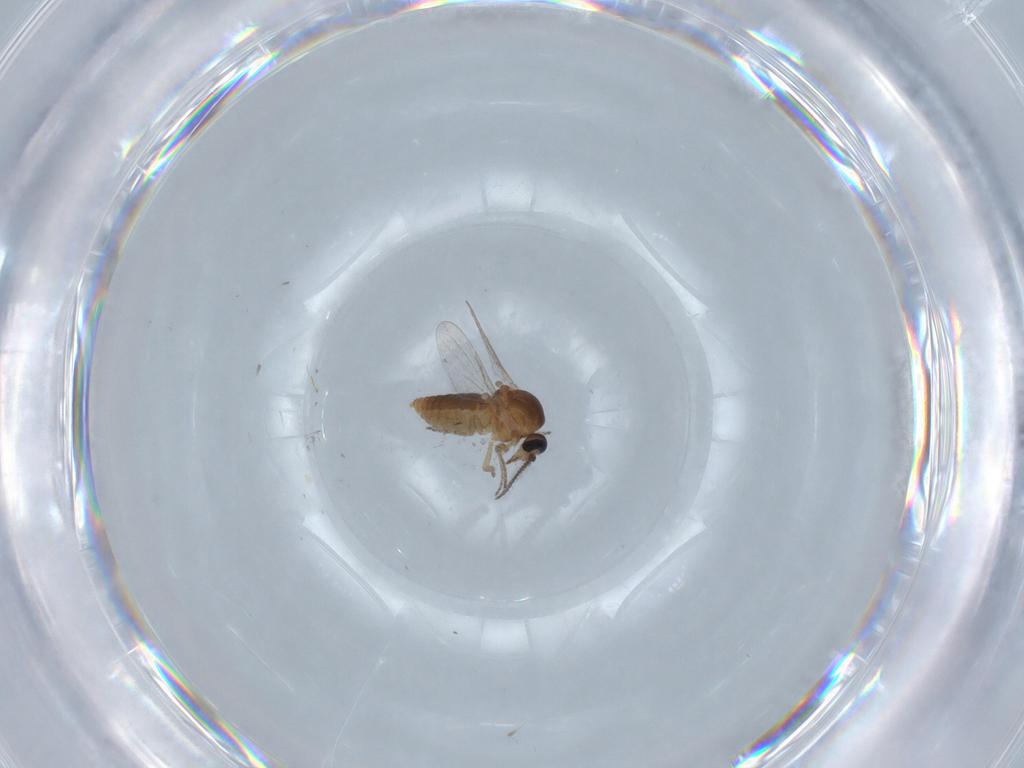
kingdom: Animalia
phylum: Arthropoda
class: Insecta
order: Diptera
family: Ceratopogonidae
